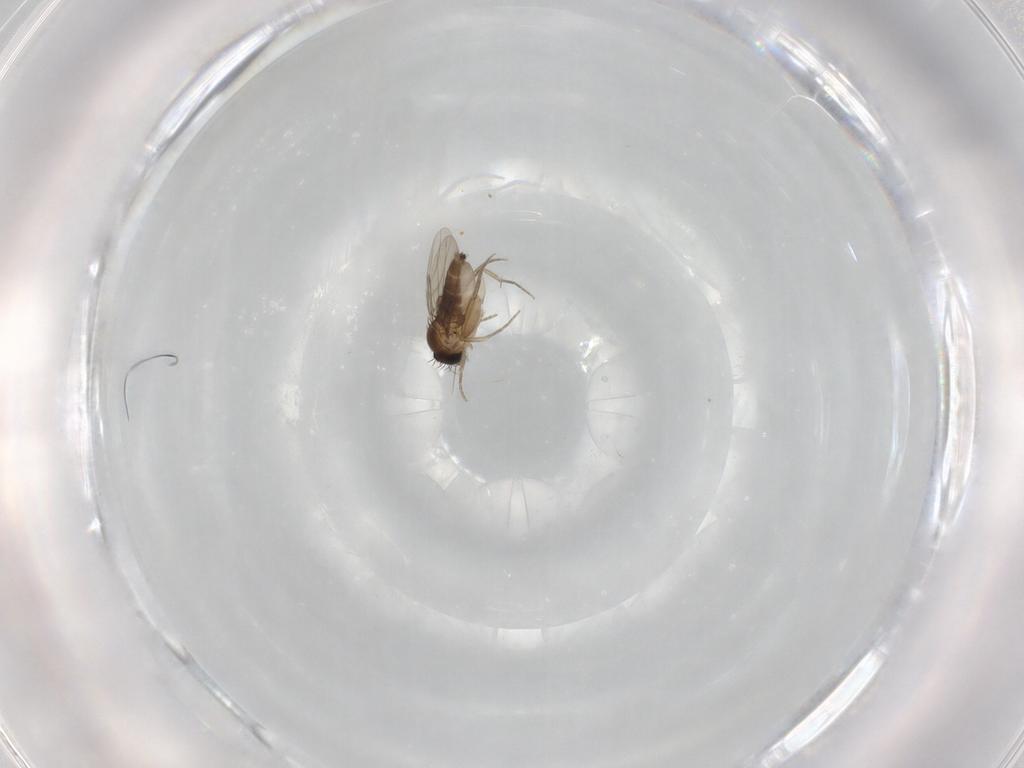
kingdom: Animalia
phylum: Arthropoda
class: Insecta
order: Diptera
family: Phoridae
